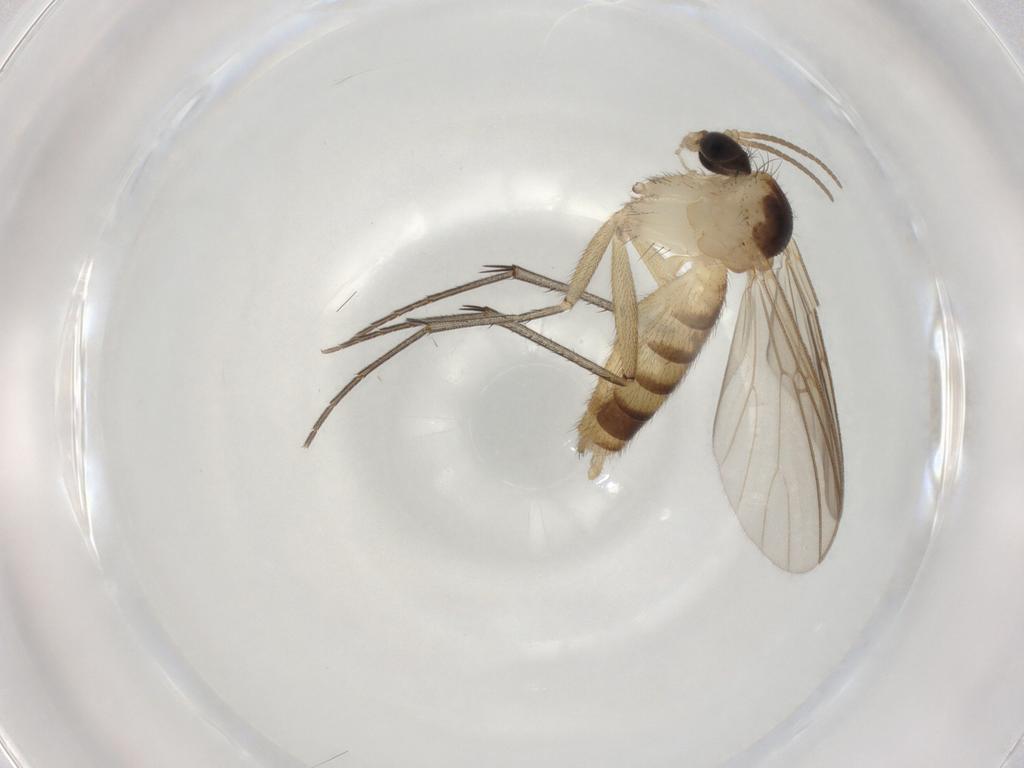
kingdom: Animalia
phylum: Arthropoda
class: Insecta
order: Diptera
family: Mycetophilidae
